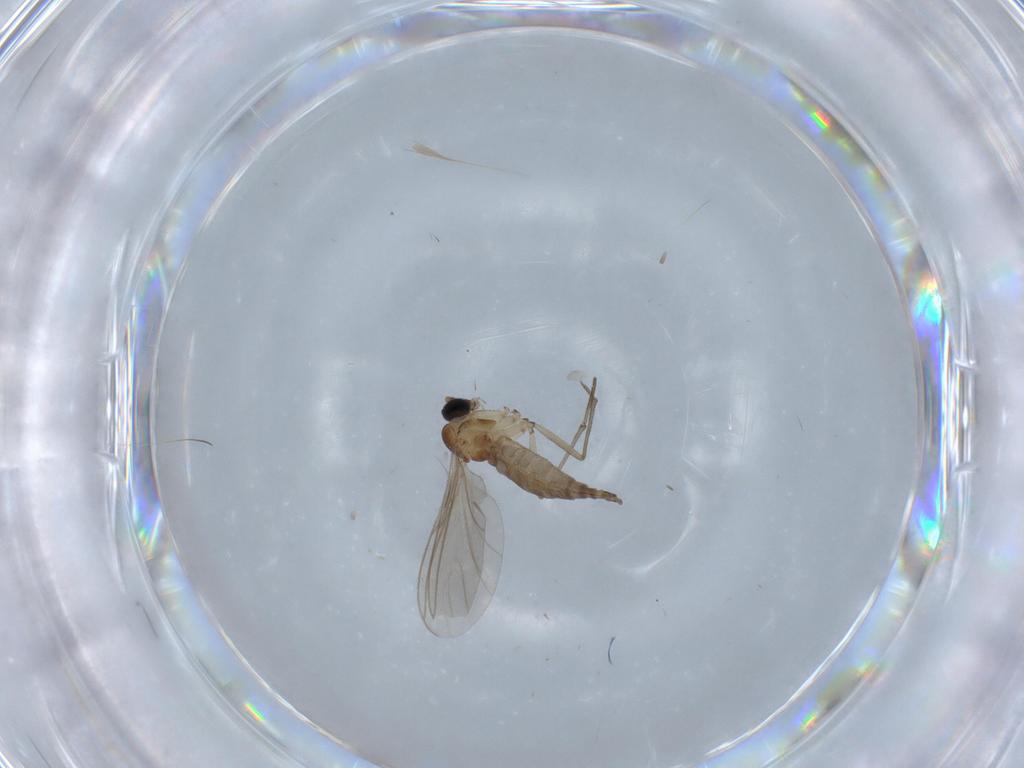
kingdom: Animalia
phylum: Arthropoda
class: Insecta
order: Diptera
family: Sciaridae
